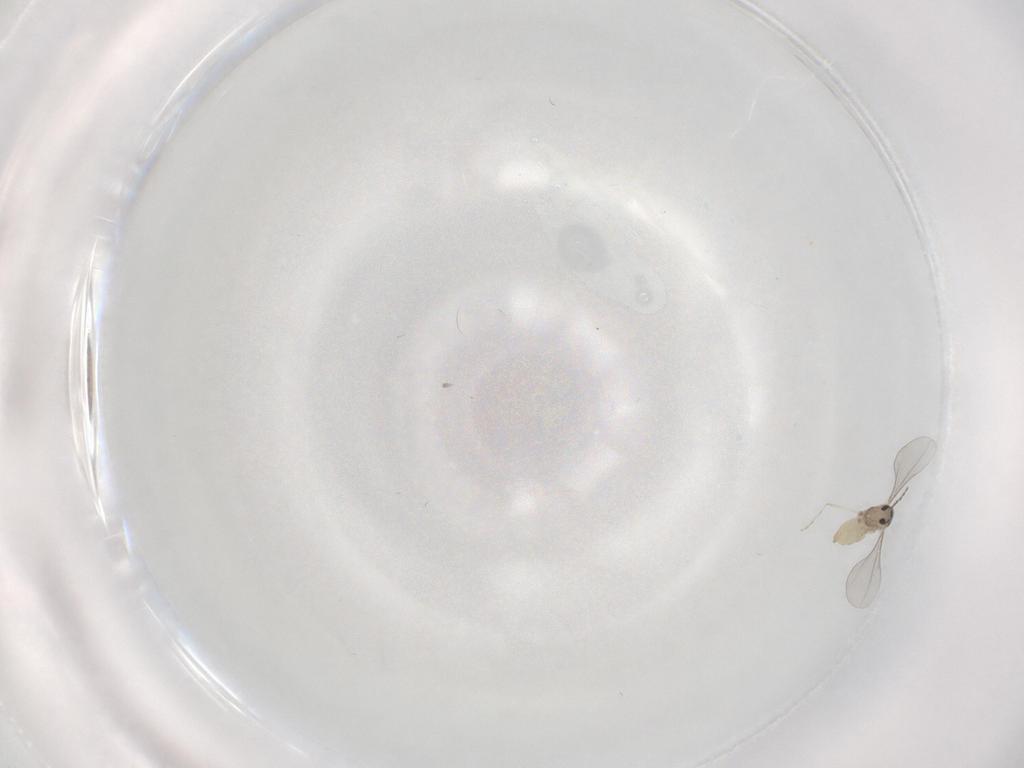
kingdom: Animalia
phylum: Arthropoda
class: Insecta
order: Diptera
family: Cecidomyiidae
